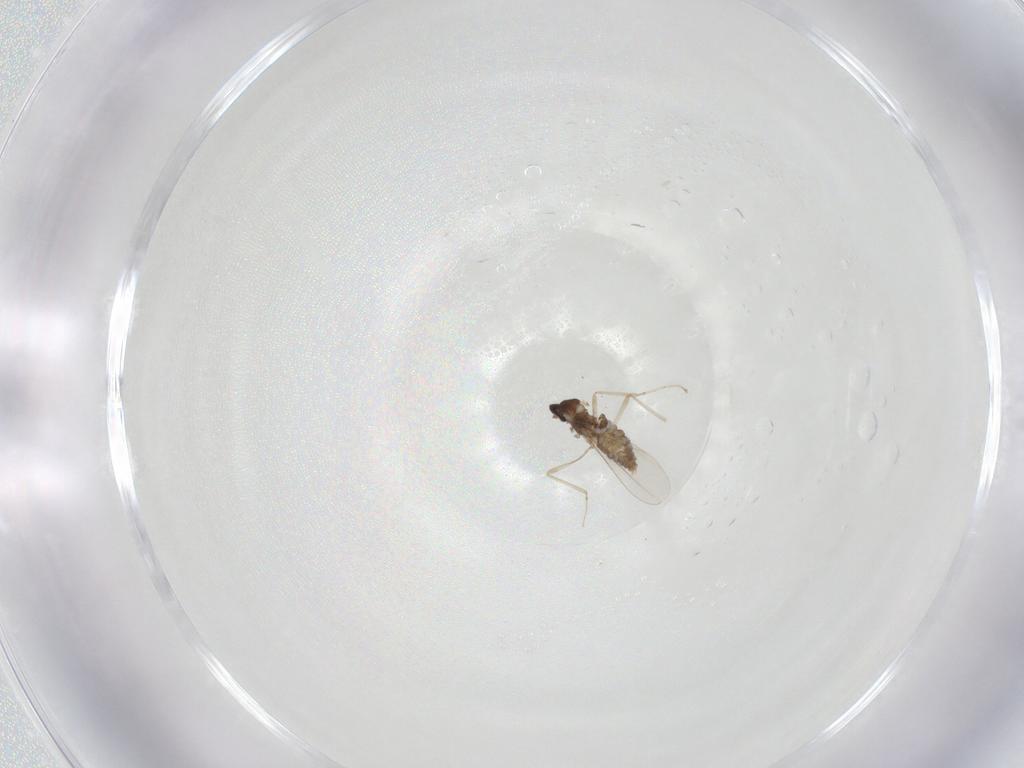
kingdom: Animalia
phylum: Arthropoda
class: Insecta
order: Diptera
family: Cecidomyiidae
